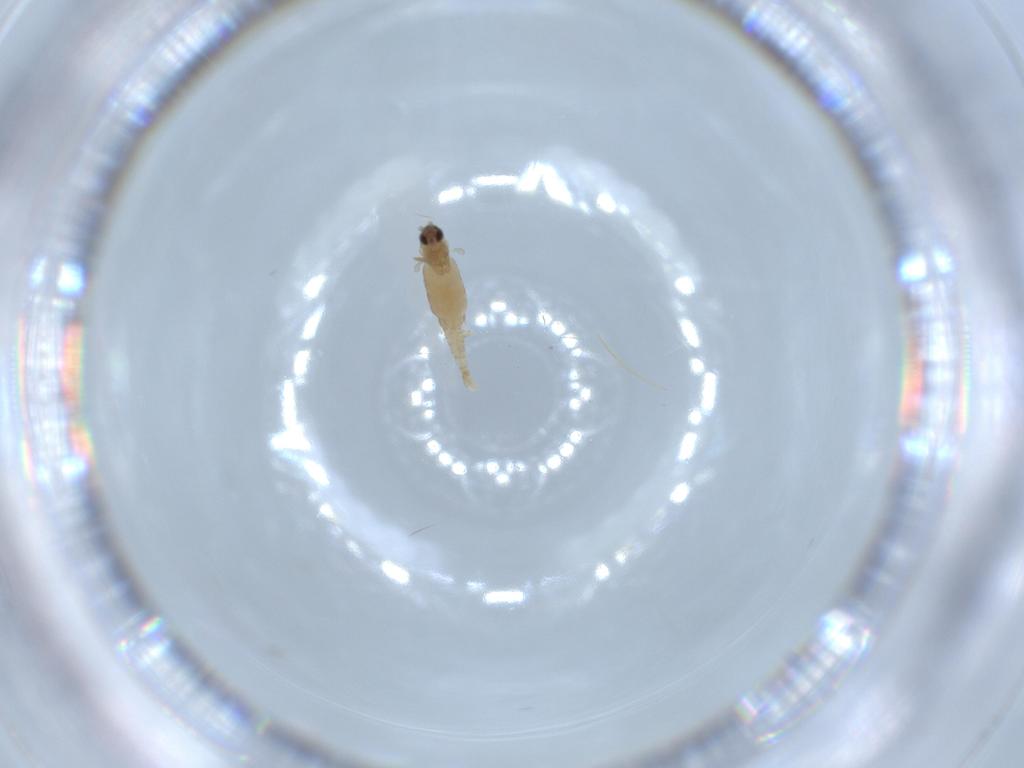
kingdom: Animalia
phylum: Arthropoda
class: Insecta
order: Diptera
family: Cecidomyiidae
